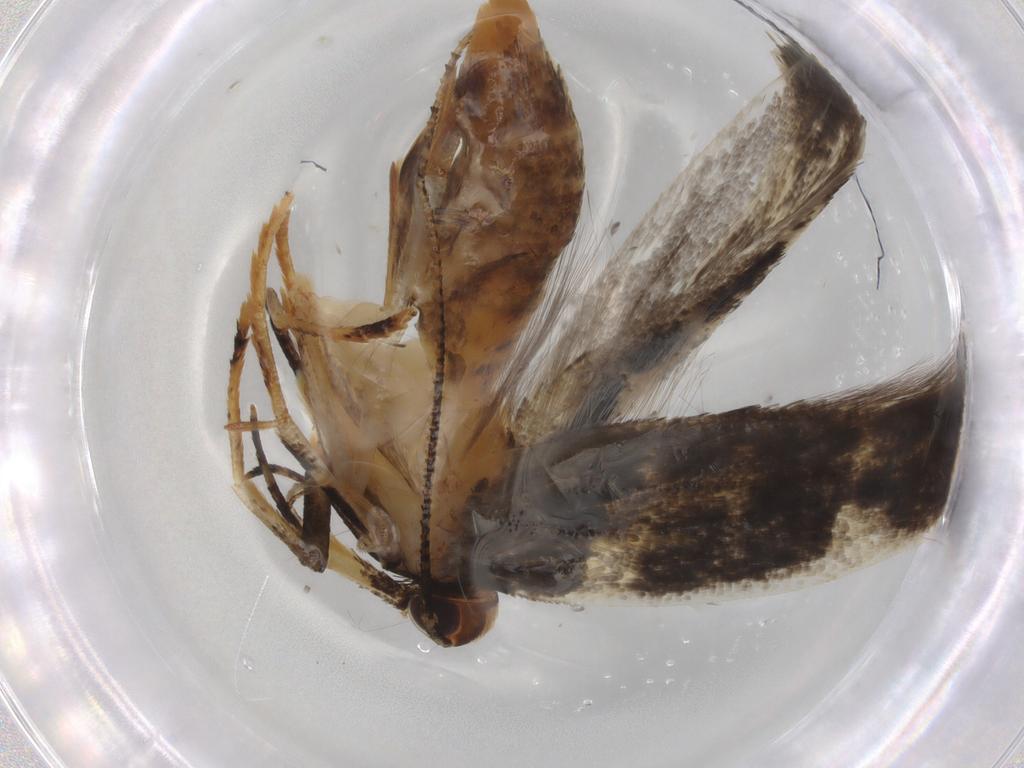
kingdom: Animalia
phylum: Arthropoda
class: Insecta
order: Lepidoptera
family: Cosmopterigidae
